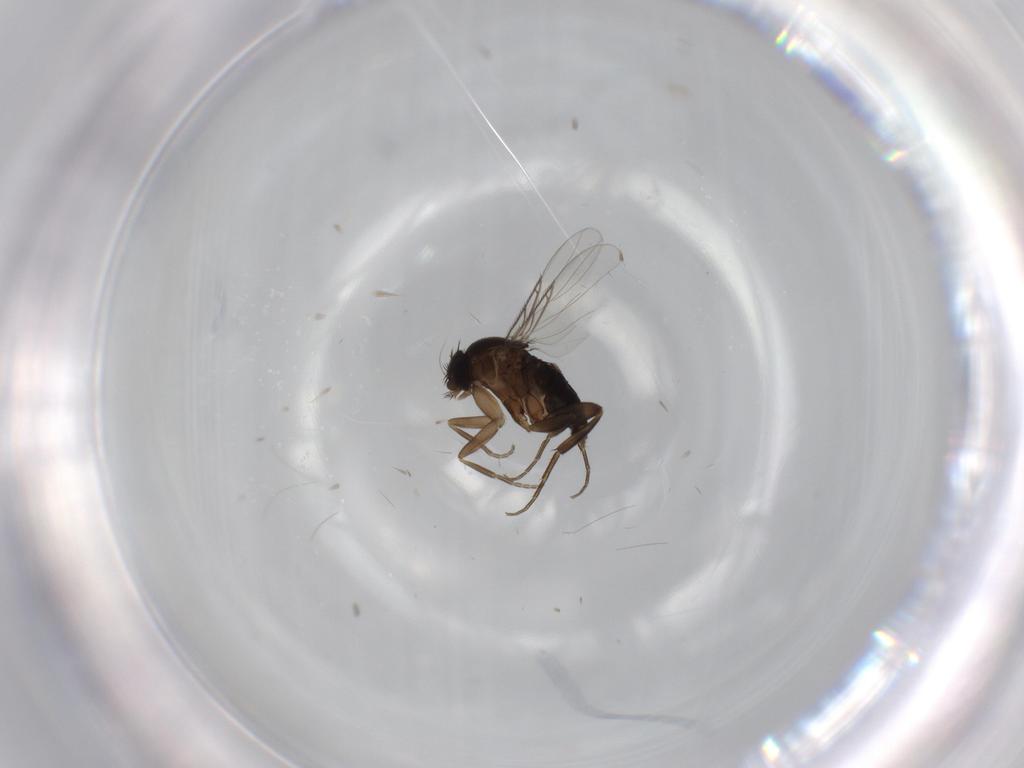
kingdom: Animalia
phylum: Arthropoda
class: Insecta
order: Diptera
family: Phoridae
